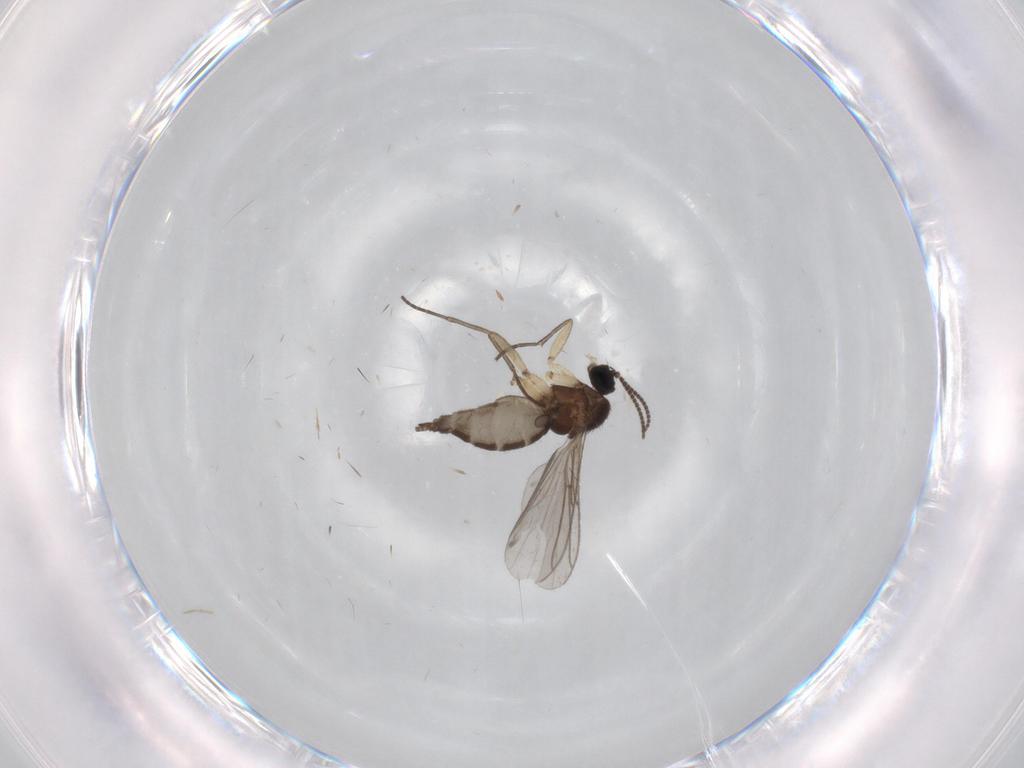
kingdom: Animalia
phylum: Arthropoda
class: Insecta
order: Diptera
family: Sciaridae
